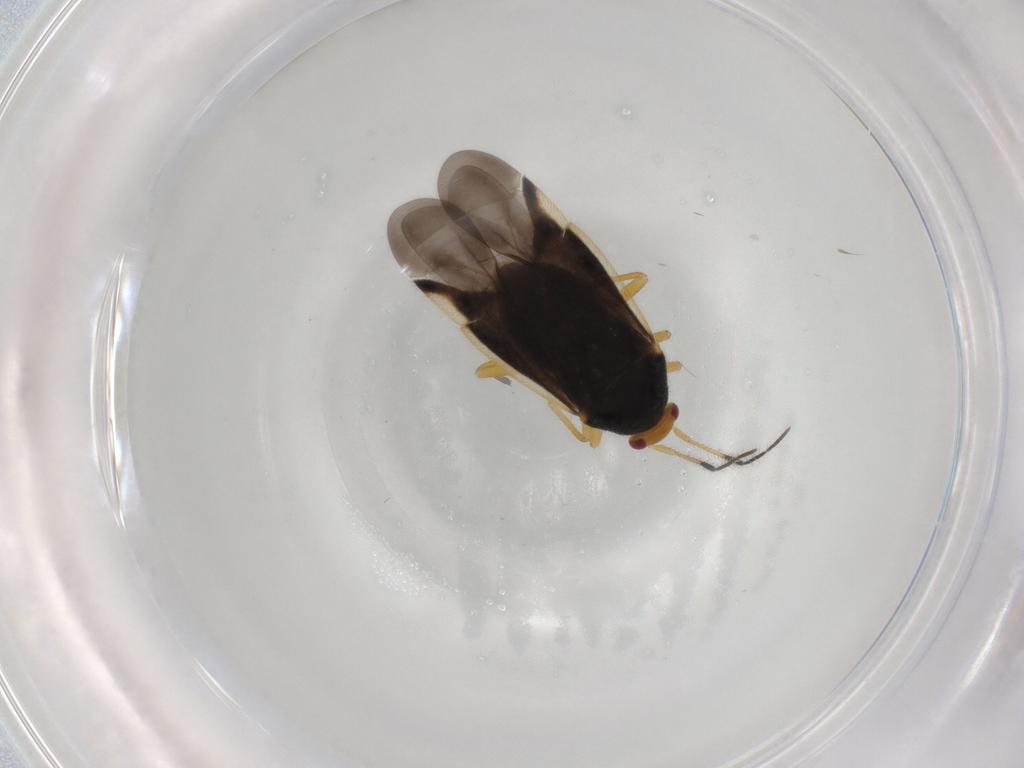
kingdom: Animalia
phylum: Arthropoda
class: Insecta
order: Hemiptera
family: Miridae
